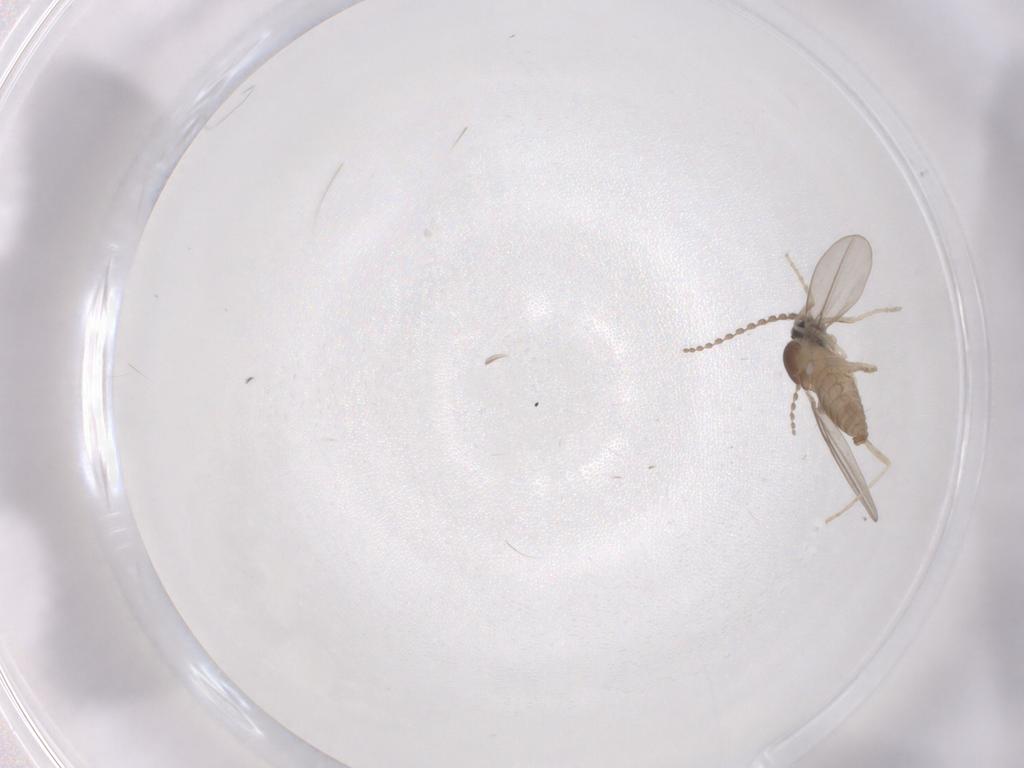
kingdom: Animalia
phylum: Arthropoda
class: Insecta
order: Diptera
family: Cecidomyiidae
